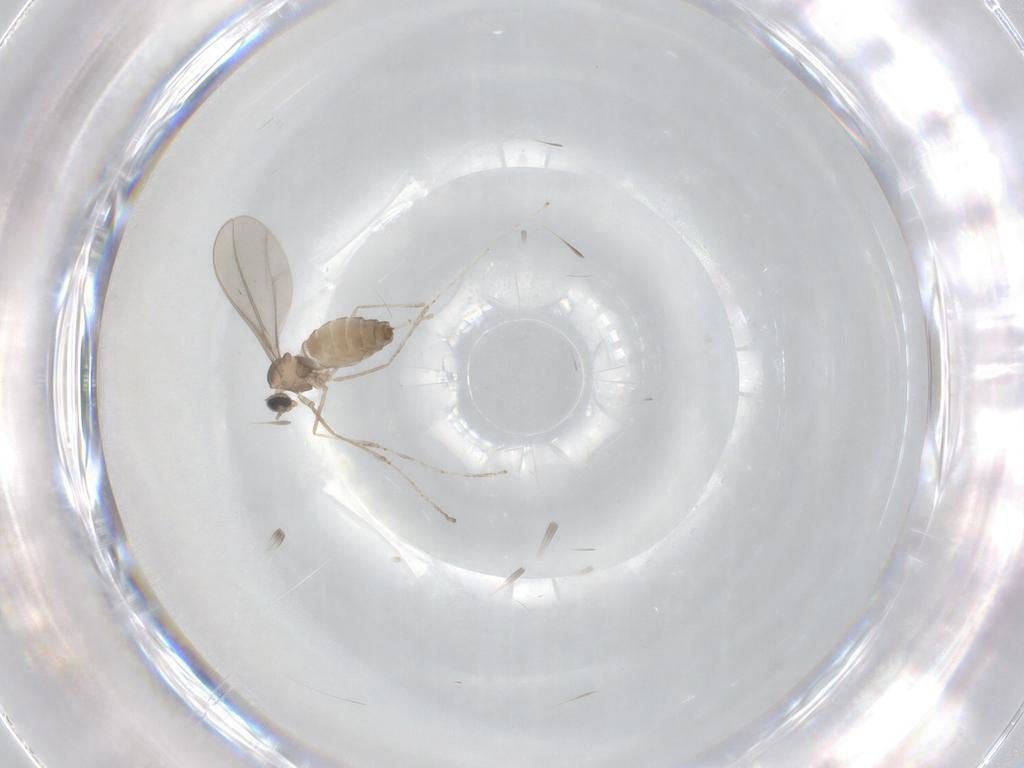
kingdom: Animalia
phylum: Arthropoda
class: Insecta
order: Diptera
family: Cecidomyiidae
